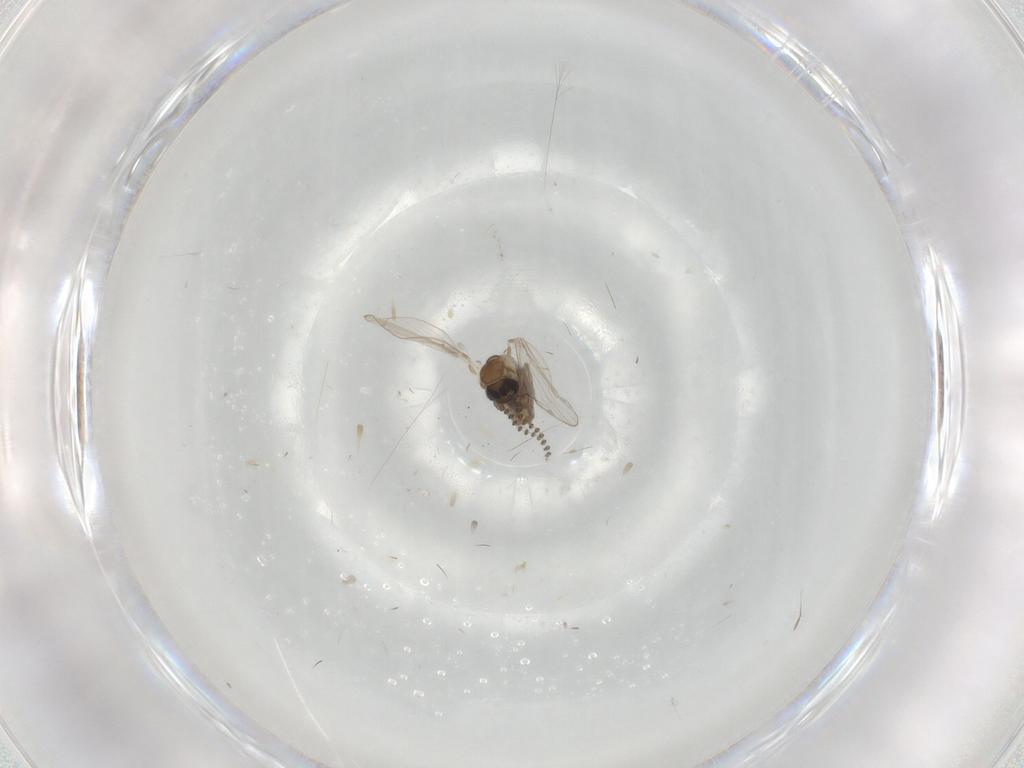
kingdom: Animalia
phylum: Arthropoda
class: Insecta
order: Diptera
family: Psychodidae
